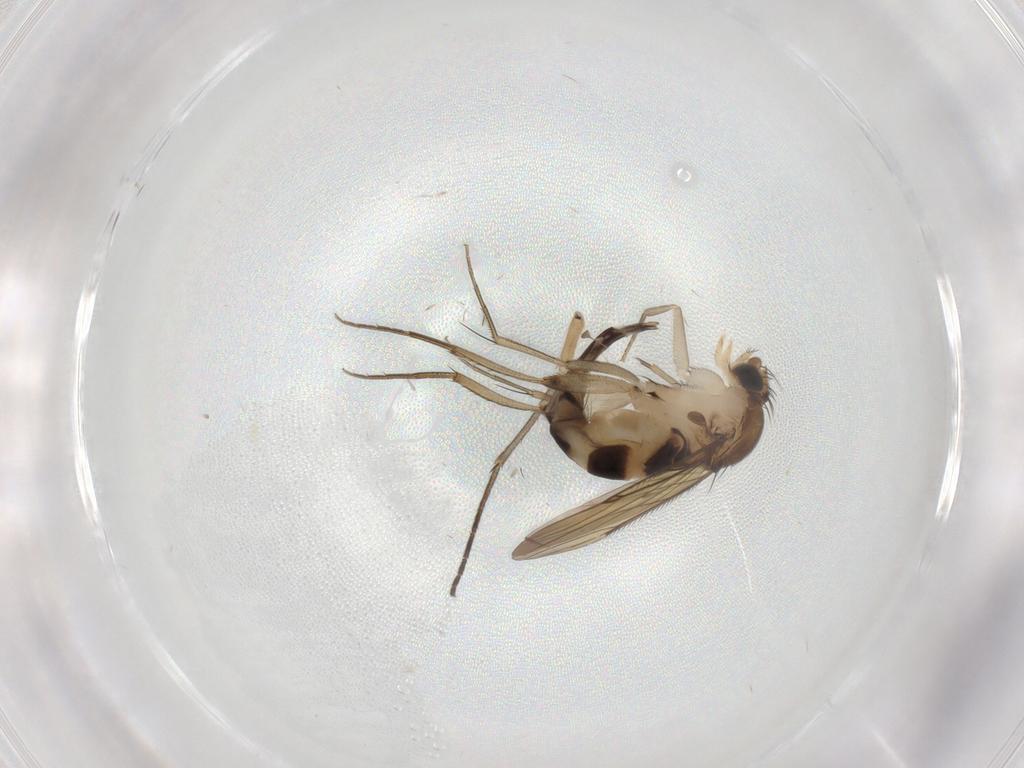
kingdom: Animalia
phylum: Arthropoda
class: Insecta
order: Diptera
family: Phoridae
